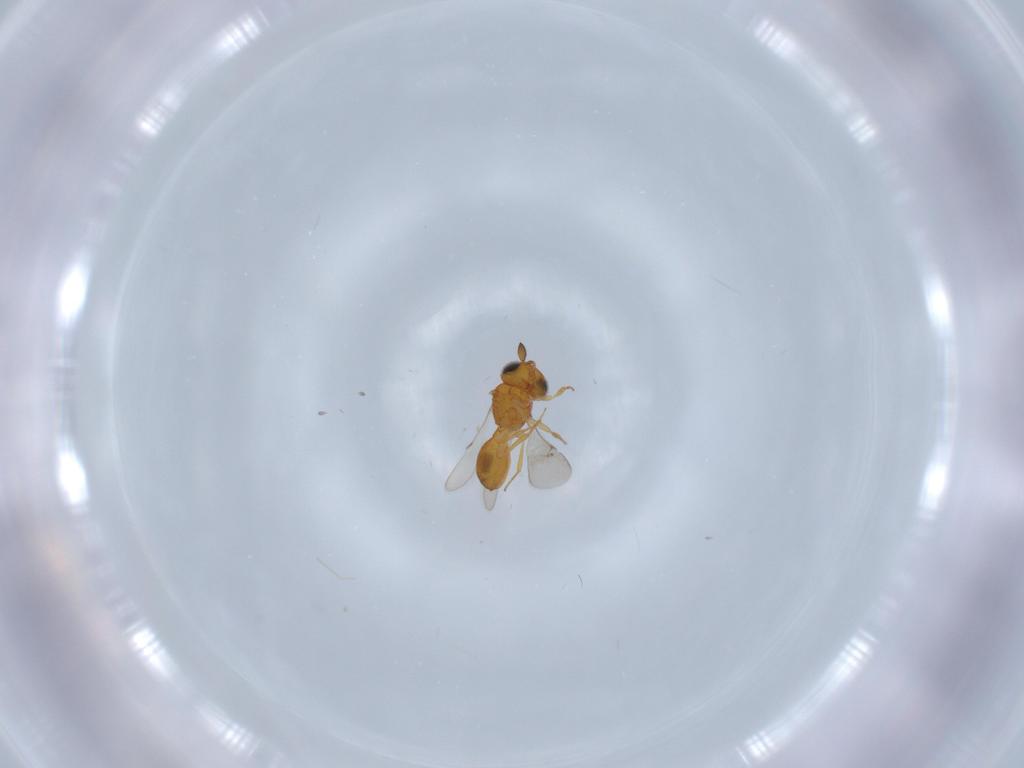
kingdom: Animalia
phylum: Arthropoda
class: Insecta
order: Hymenoptera
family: Scelionidae
